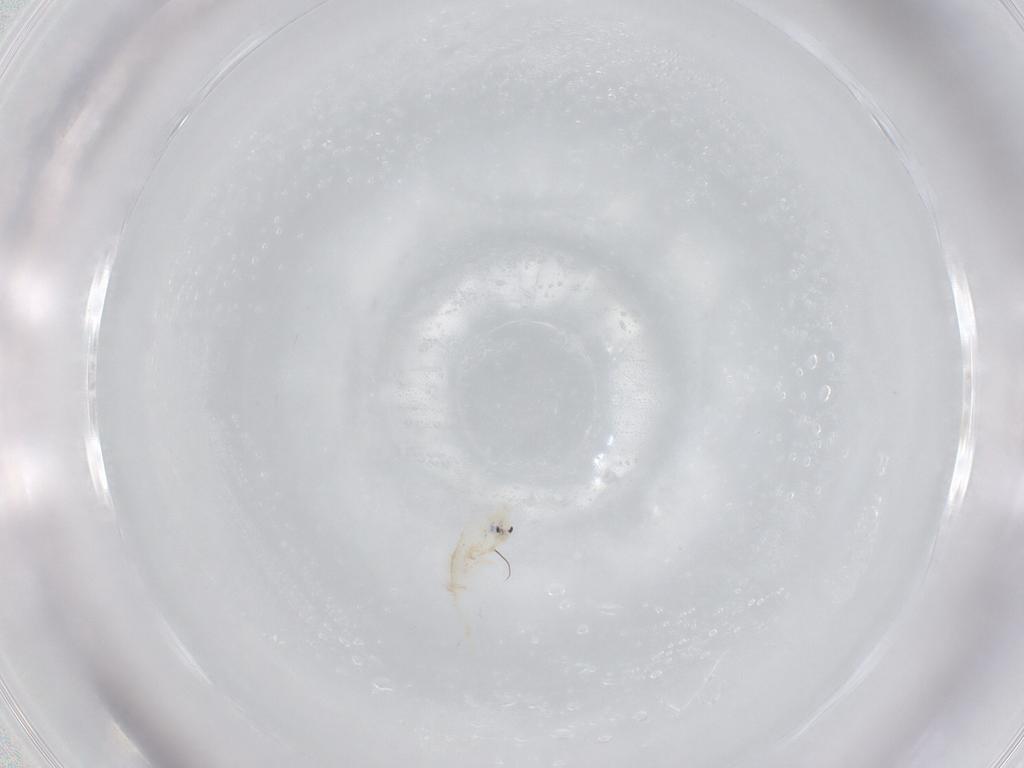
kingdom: Animalia
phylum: Arthropoda
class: Collembola
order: Entomobryomorpha
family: Entomobryidae
